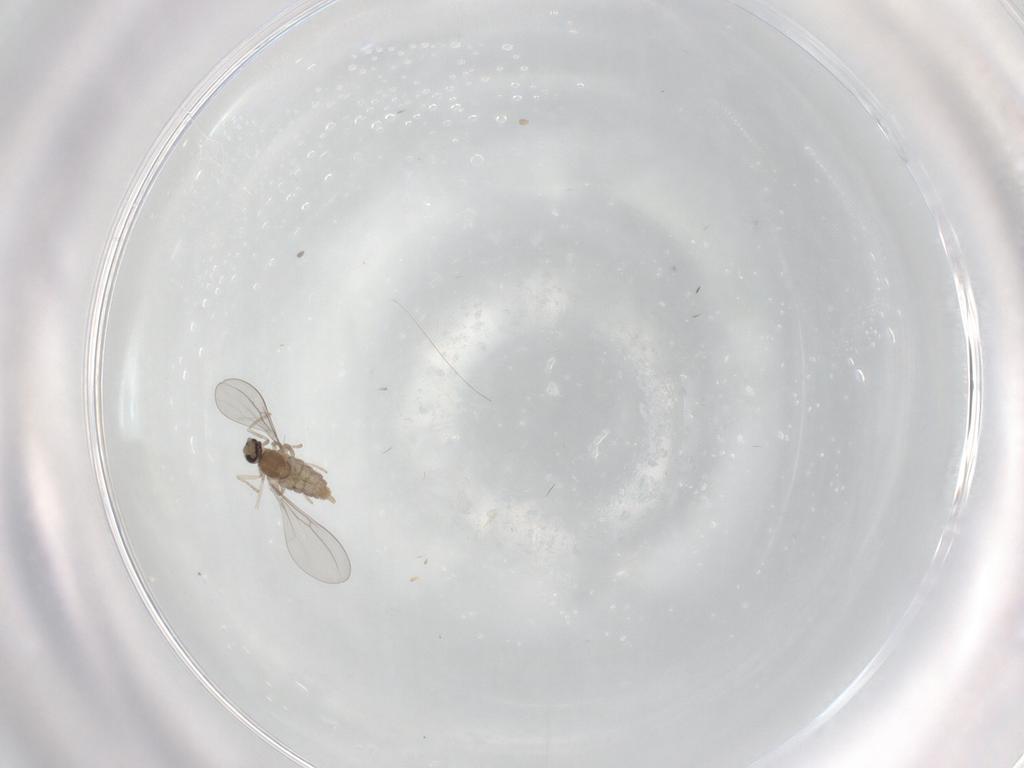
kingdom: Animalia
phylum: Arthropoda
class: Insecta
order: Diptera
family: Cecidomyiidae
